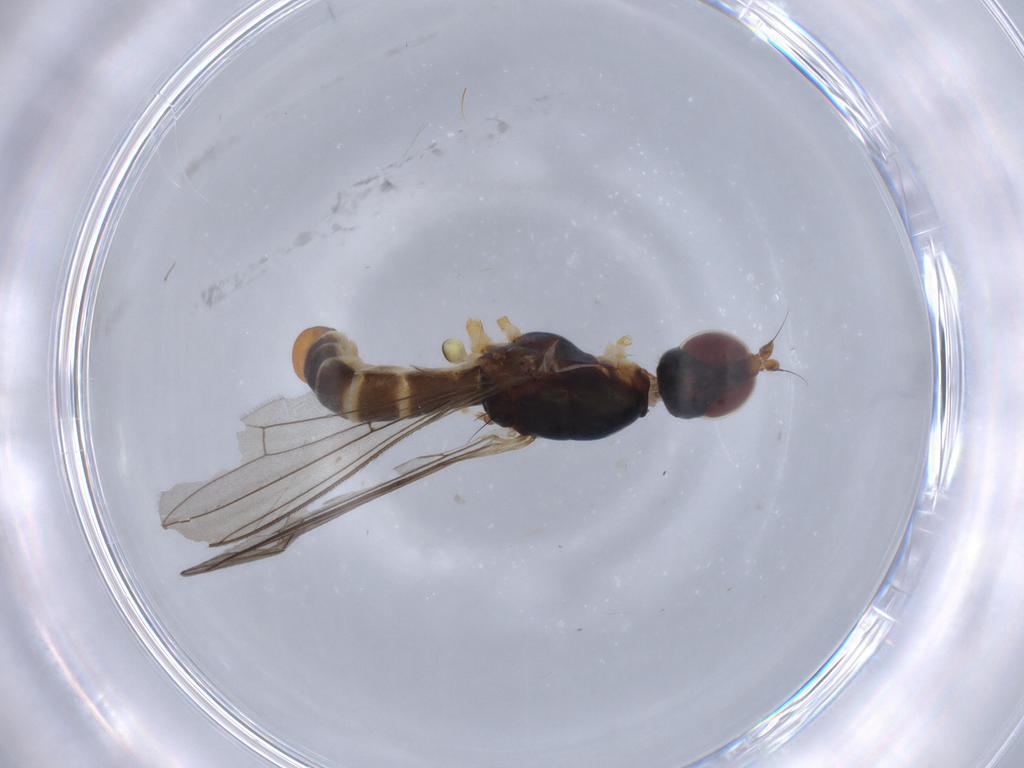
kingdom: Animalia
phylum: Arthropoda
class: Insecta
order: Diptera
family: Micropezidae
